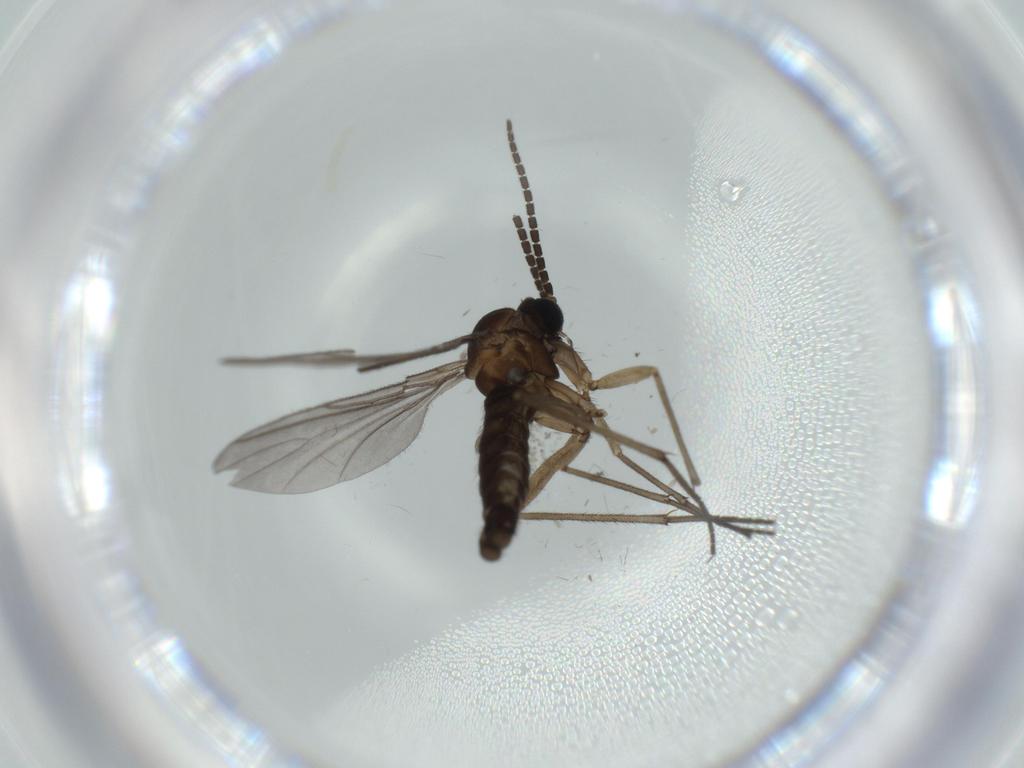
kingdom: Animalia
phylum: Arthropoda
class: Insecta
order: Diptera
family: Sciaridae
